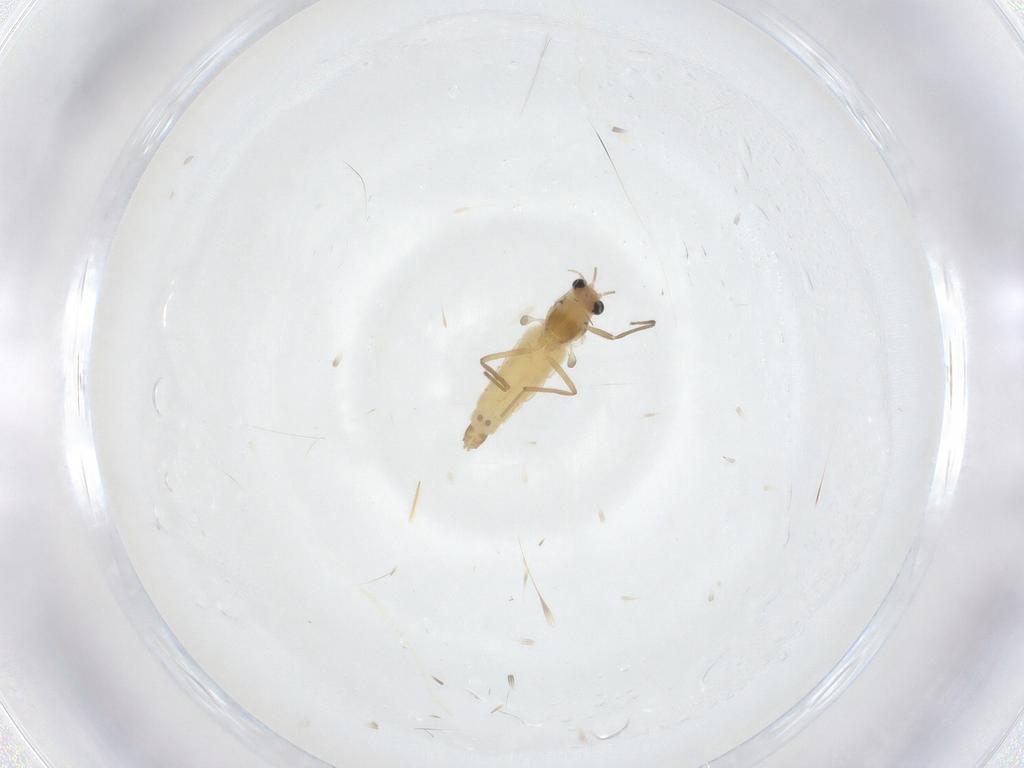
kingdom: Animalia
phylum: Arthropoda
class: Insecta
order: Diptera
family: Chironomidae
